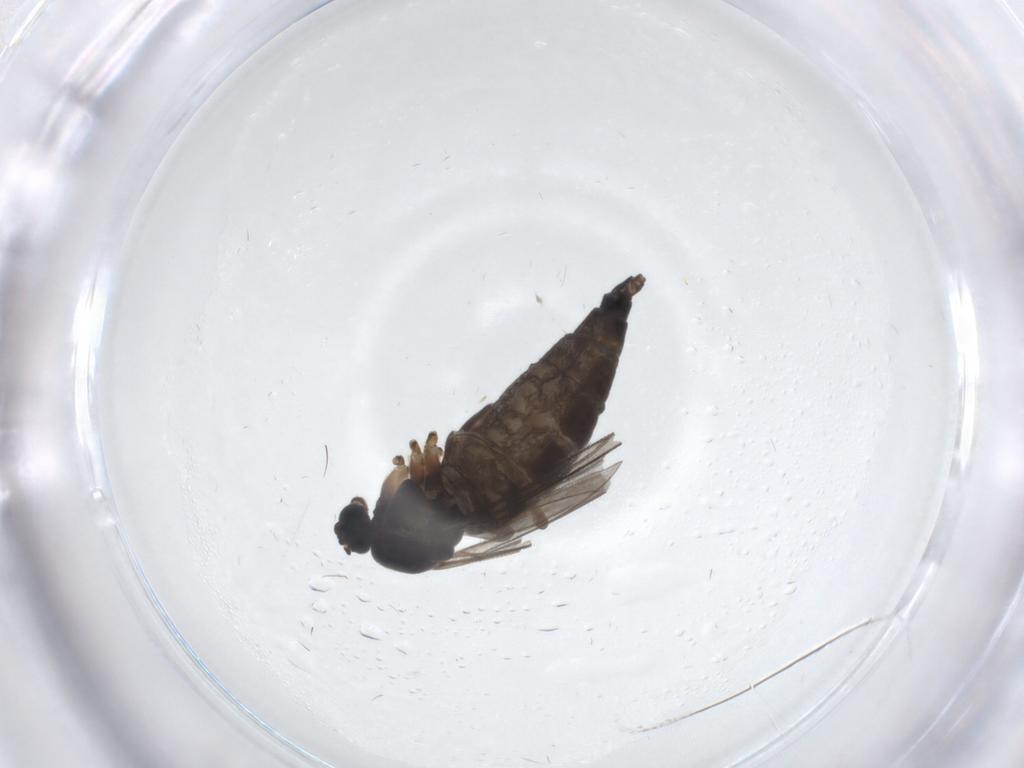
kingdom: Animalia
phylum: Arthropoda
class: Insecta
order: Diptera
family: Sciaridae
